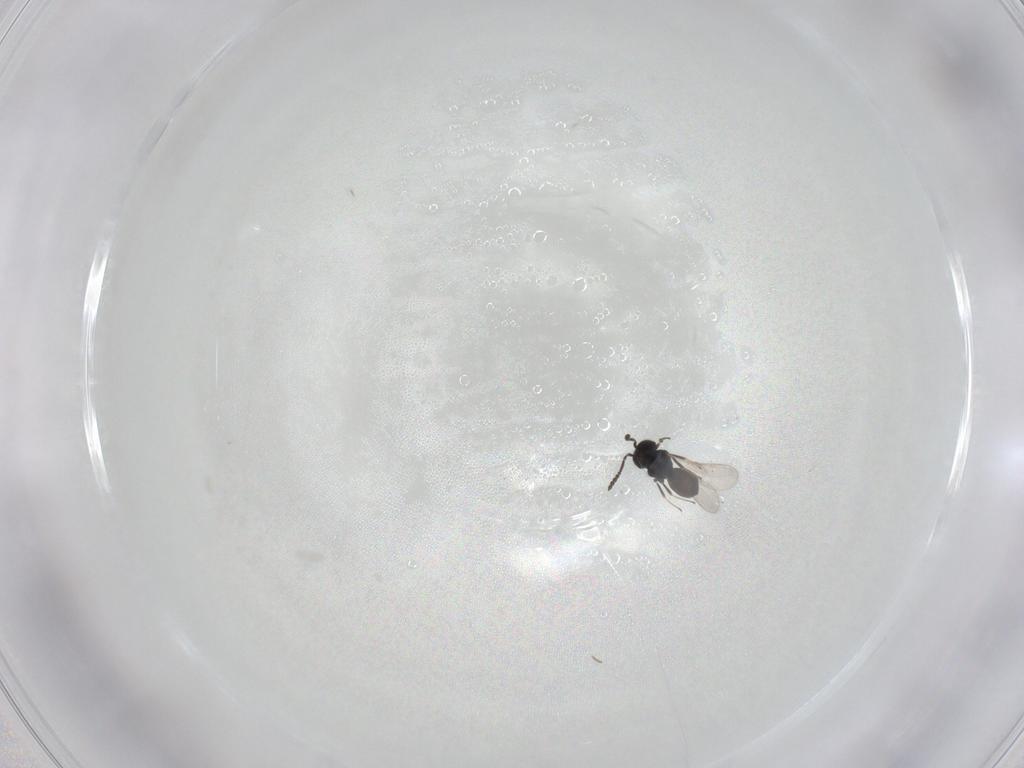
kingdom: Animalia
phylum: Arthropoda
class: Insecta
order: Hymenoptera
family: Scelionidae
